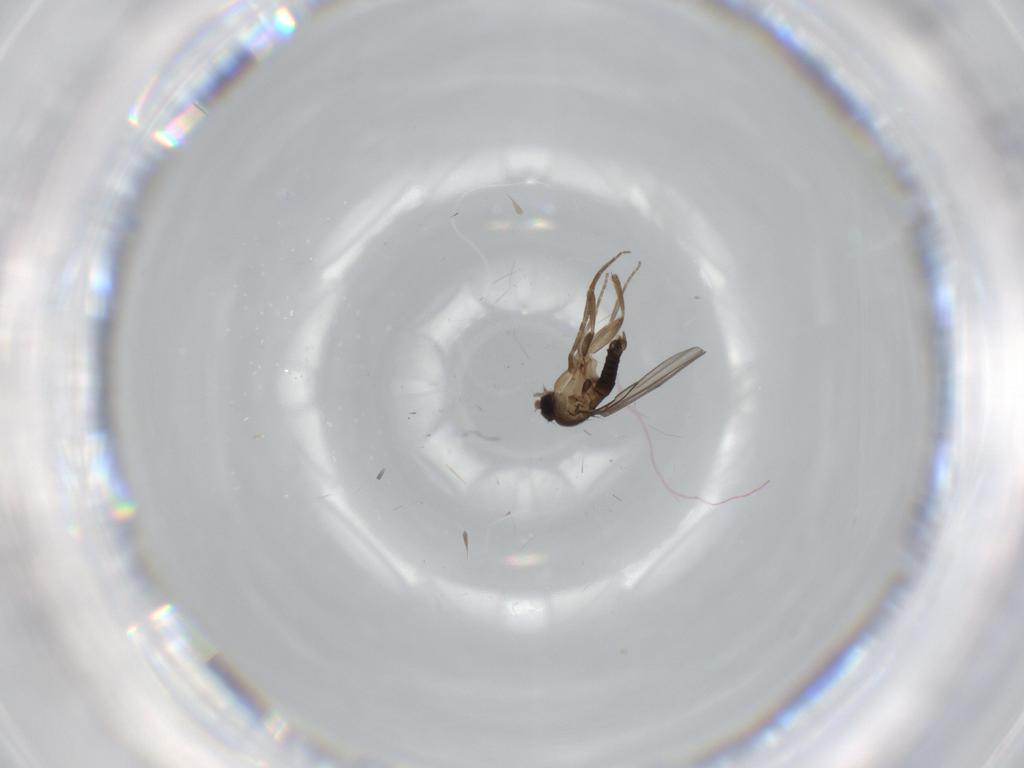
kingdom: Animalia
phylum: Arthropoda
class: Insecta
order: Diptera
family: Phoridae
